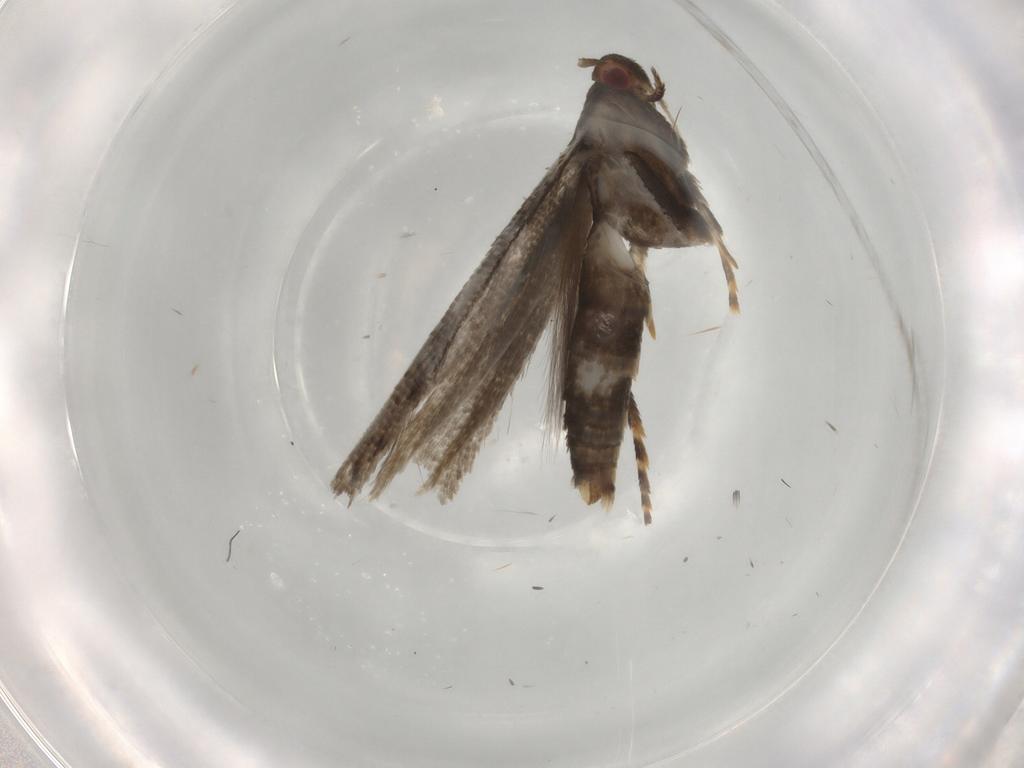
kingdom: Animalia
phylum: Arthropoda
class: Insecta
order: Lepidoptera
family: Momphidae
